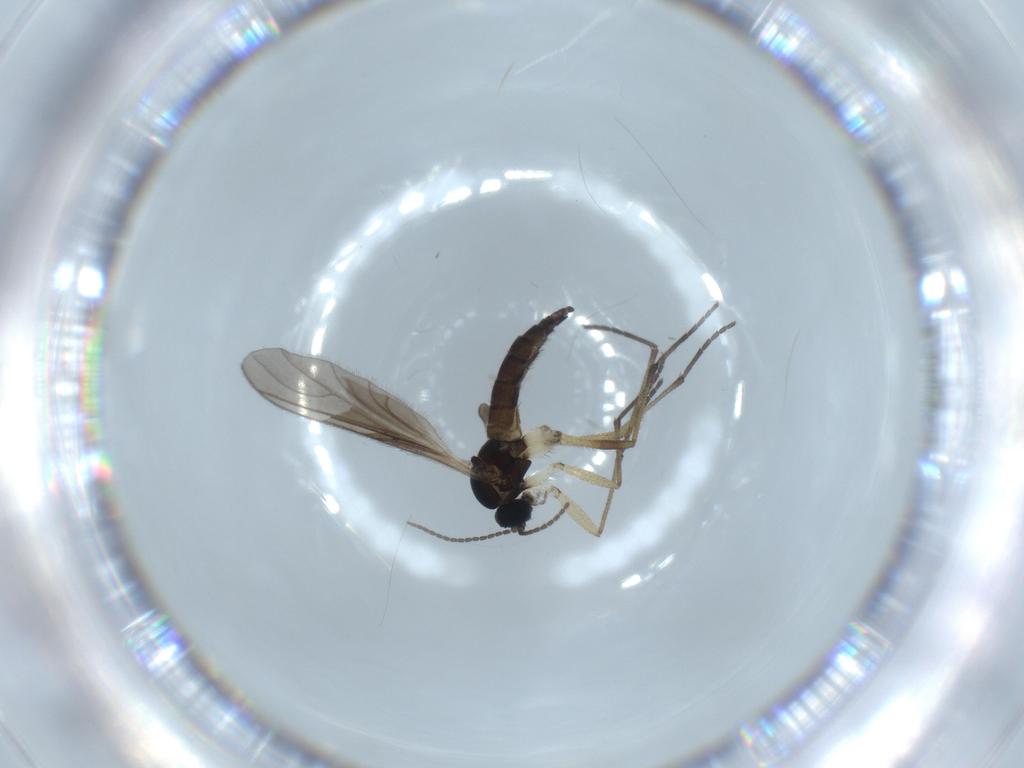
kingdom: Animalia
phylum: Arthropoda
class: Insecta
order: Diptera
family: Sciaridae
